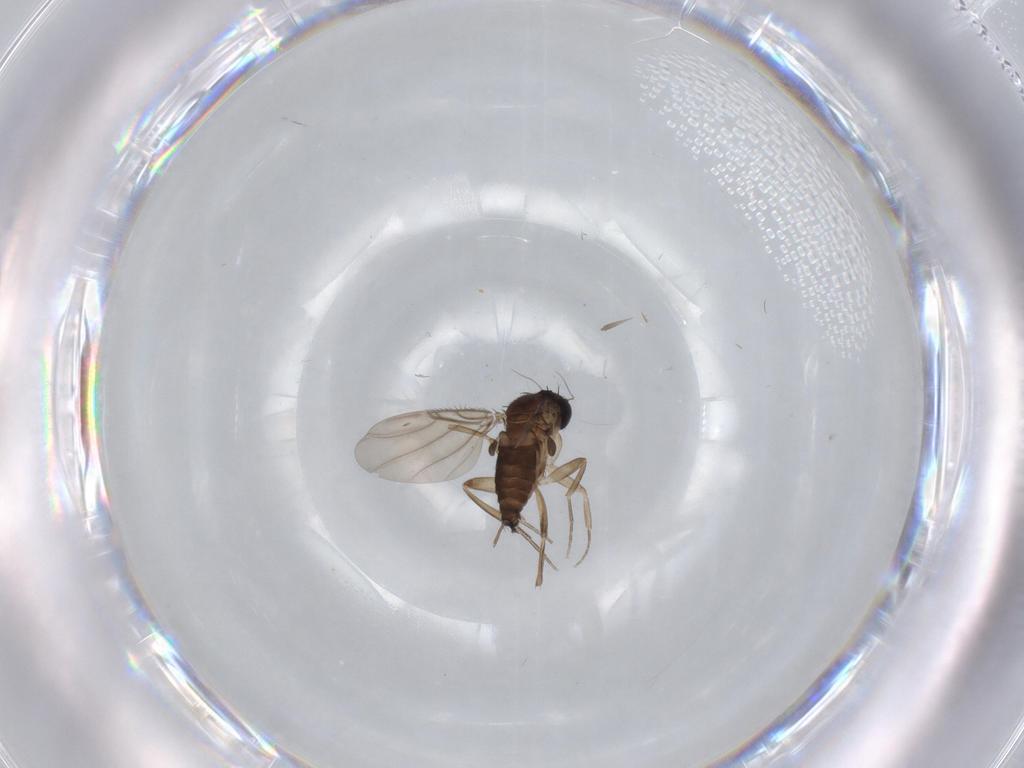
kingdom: Animalia
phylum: Arthropoda
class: Insecta
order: Diptera
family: Phoridae
